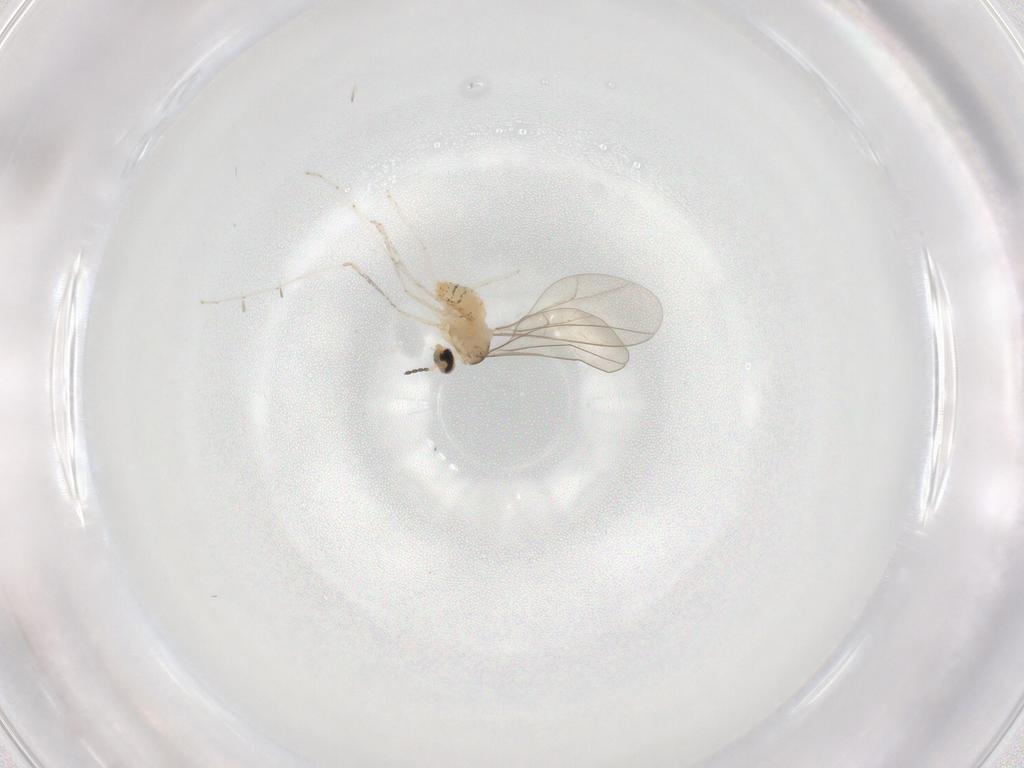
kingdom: Animalia
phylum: Arthropoda
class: Insecta
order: Diptera
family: Cecidomyiidae
